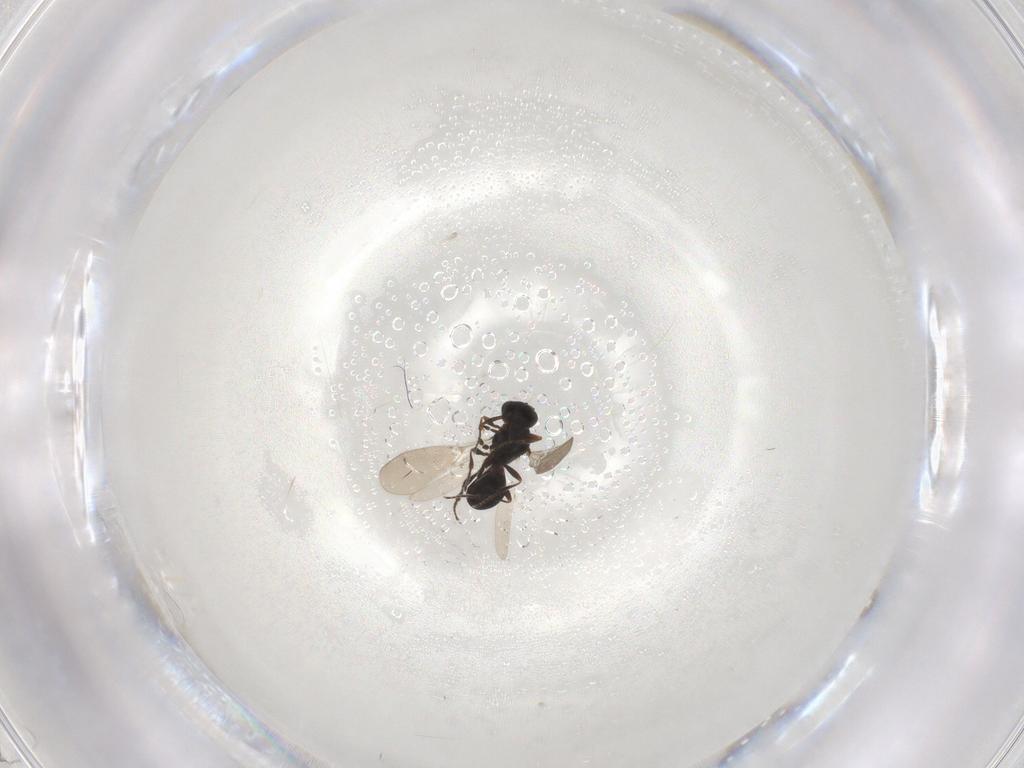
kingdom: Animalia
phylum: Arthropoda
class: Insecta
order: Hymenoptera
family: Platygastridae
